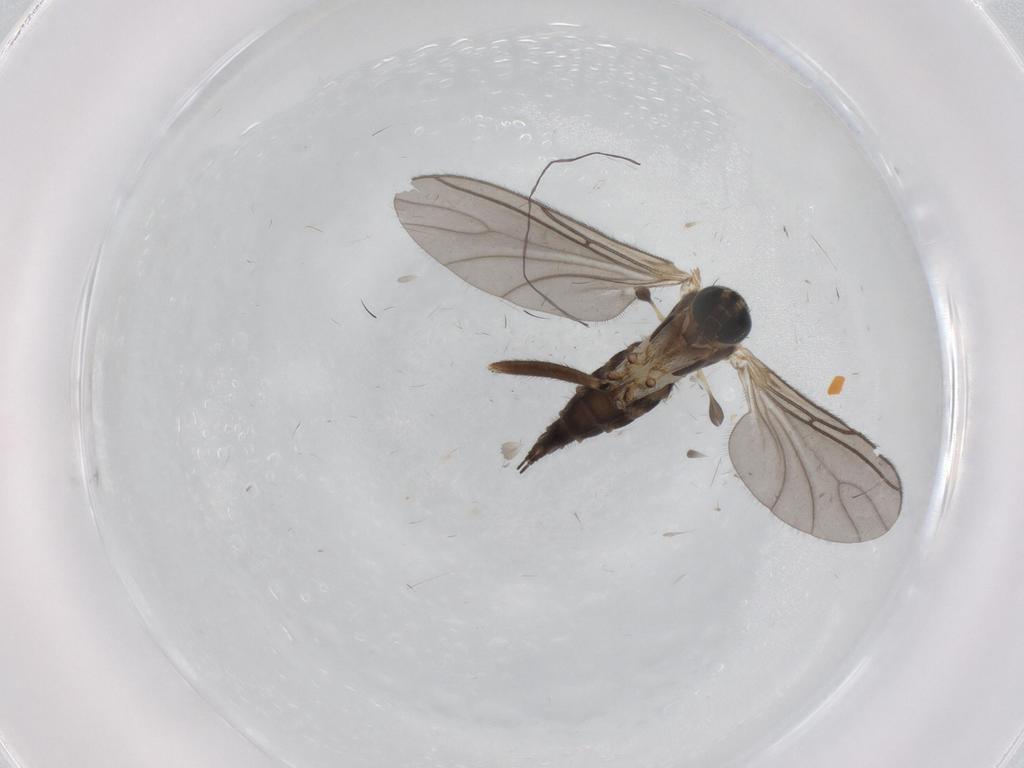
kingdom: Animalia
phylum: Arthropoda
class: Insecta
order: Diptera
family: Sciaridae
